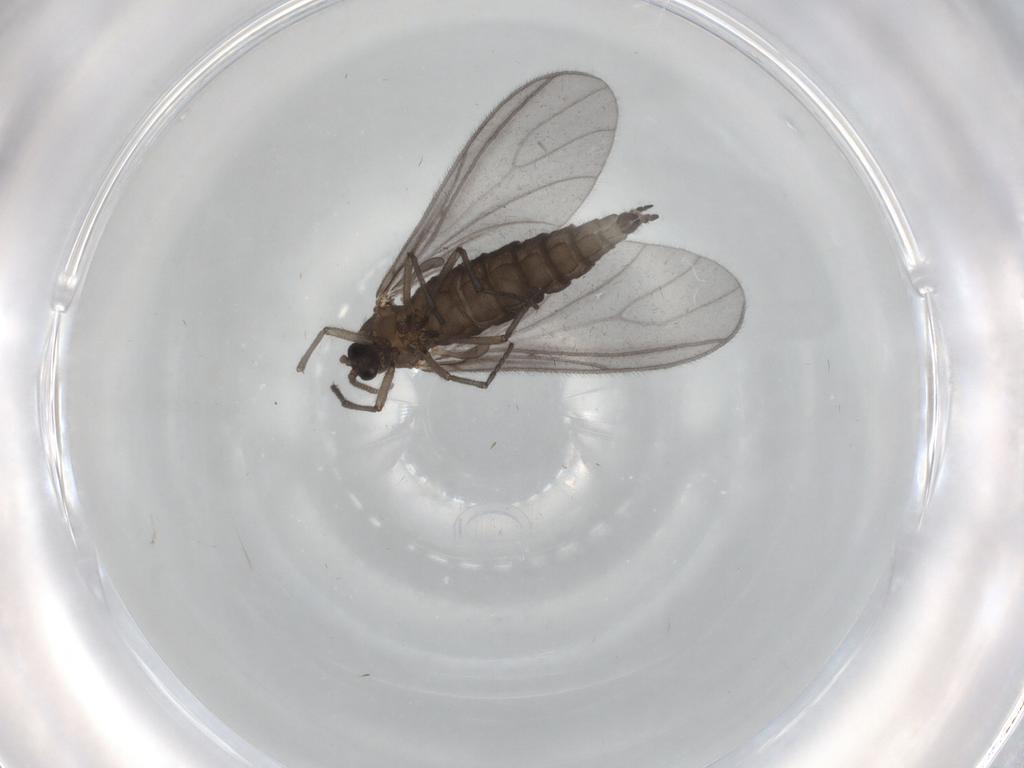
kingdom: Animalia
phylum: Arthropoda
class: Insecta
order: Diptera
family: Sciaridae
